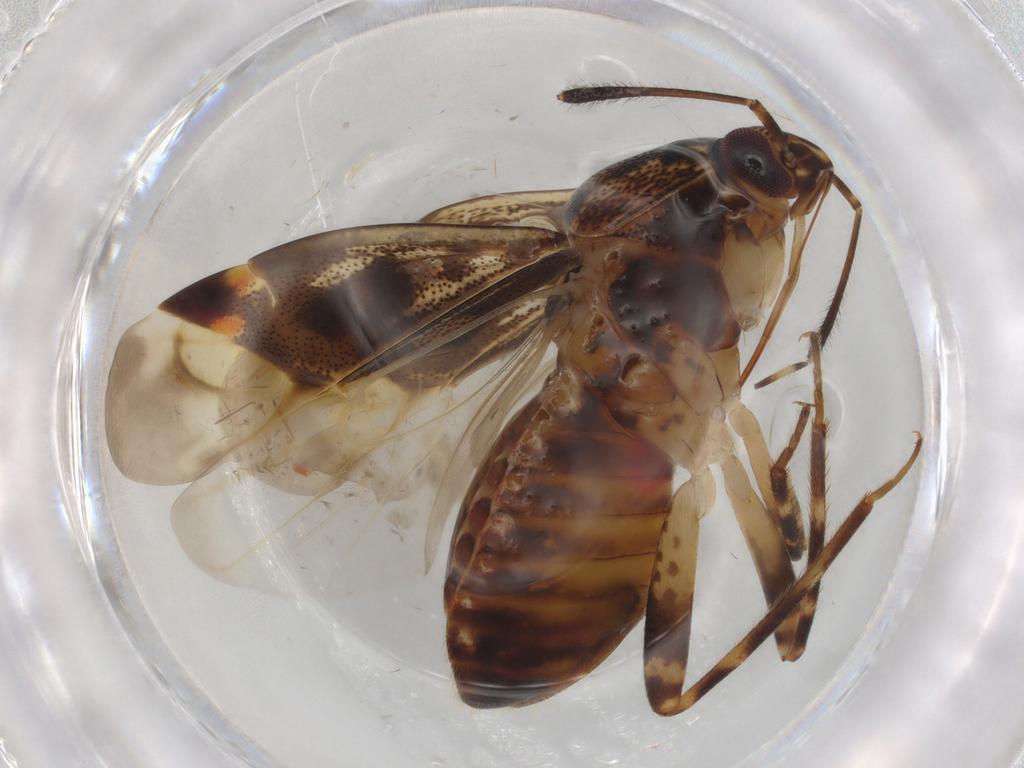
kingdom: Animalia
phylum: Arthropoda
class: Insecta
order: Hemiptera
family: Miridae
